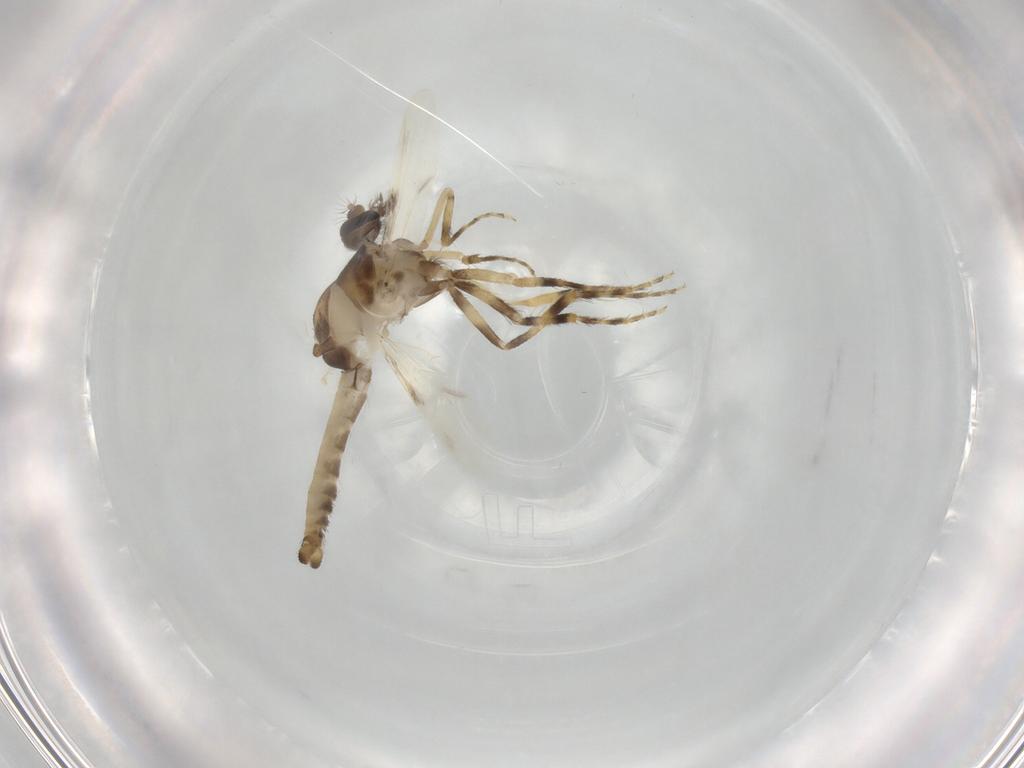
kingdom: Animalia
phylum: Arthropoda
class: Insecta
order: Diptera
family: Ceratopogonidae
